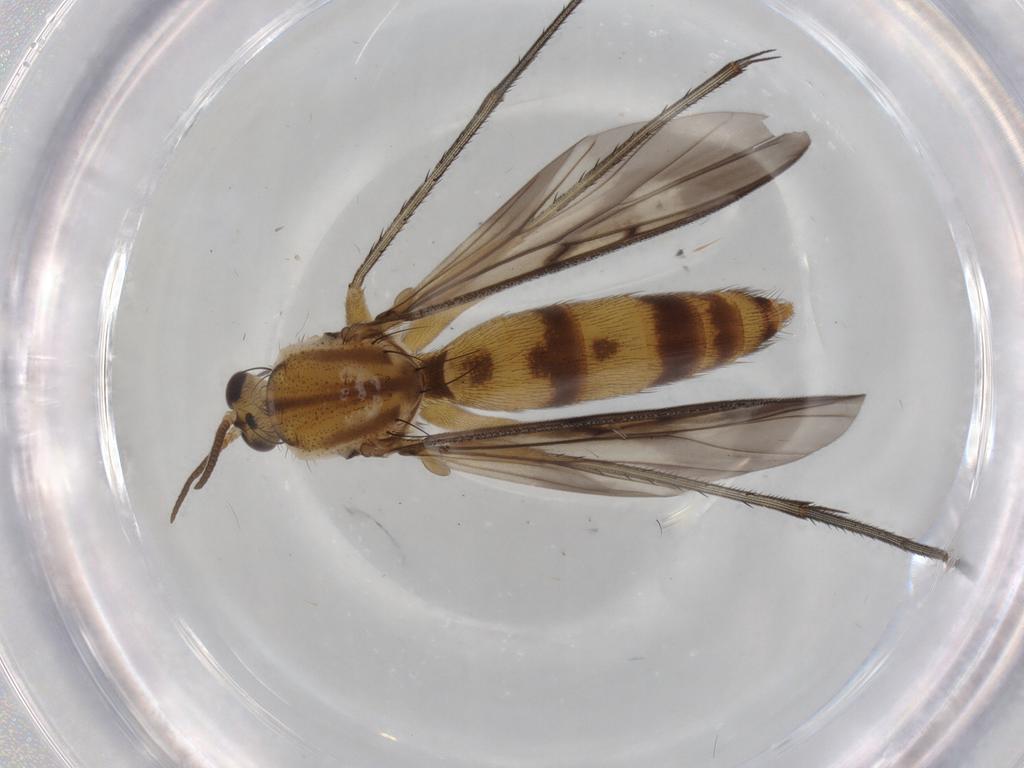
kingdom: Animalia
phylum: Arthropoda
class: Insecta
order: Diptera
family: Mycetophilidae
